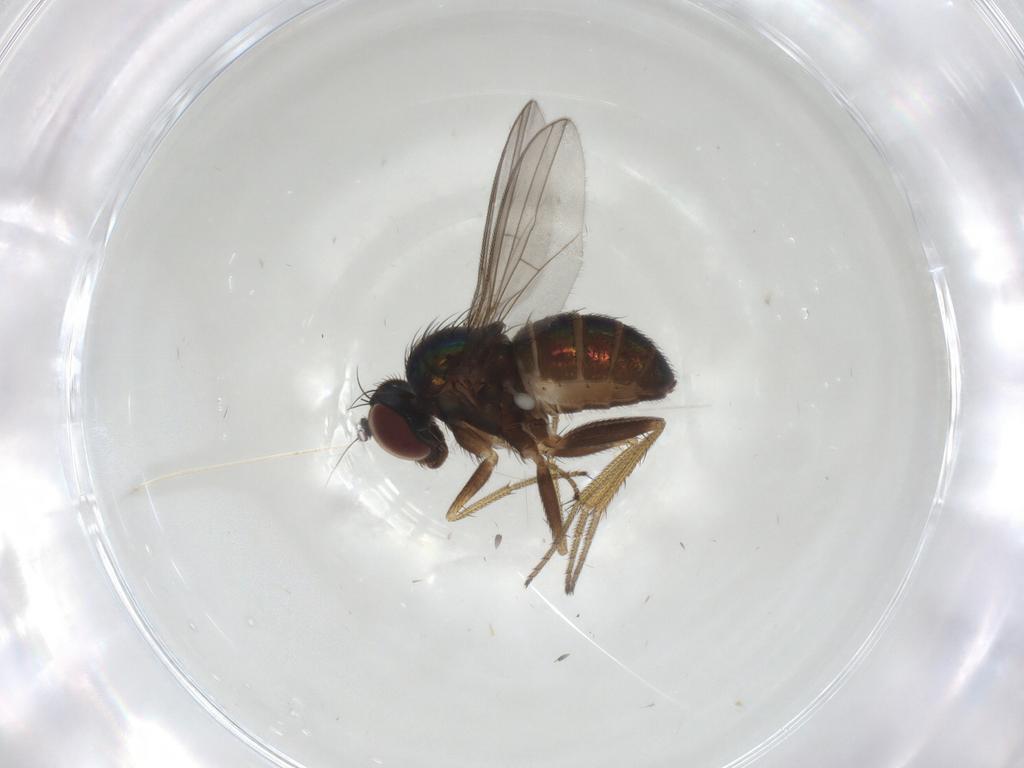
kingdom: Animalia
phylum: Arthropoda
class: Insecta
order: Diptera
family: Dolichopodidae
